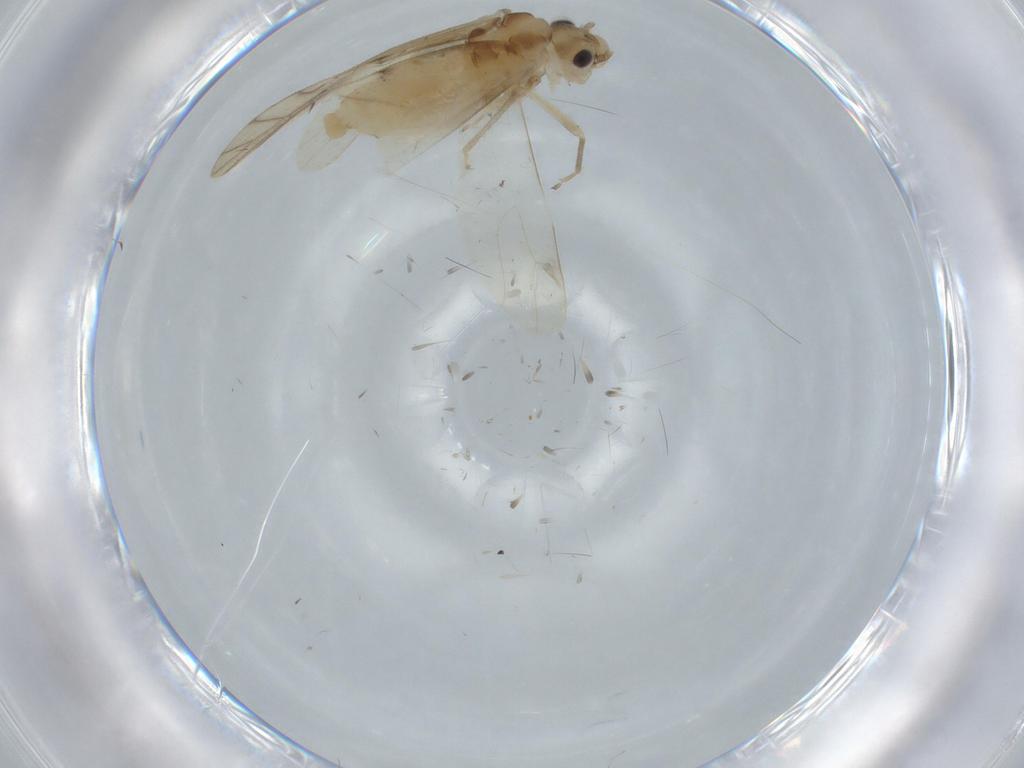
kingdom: Animalia
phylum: Arthropoda
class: Insecta
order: Psocodea
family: Caeciliusidae
